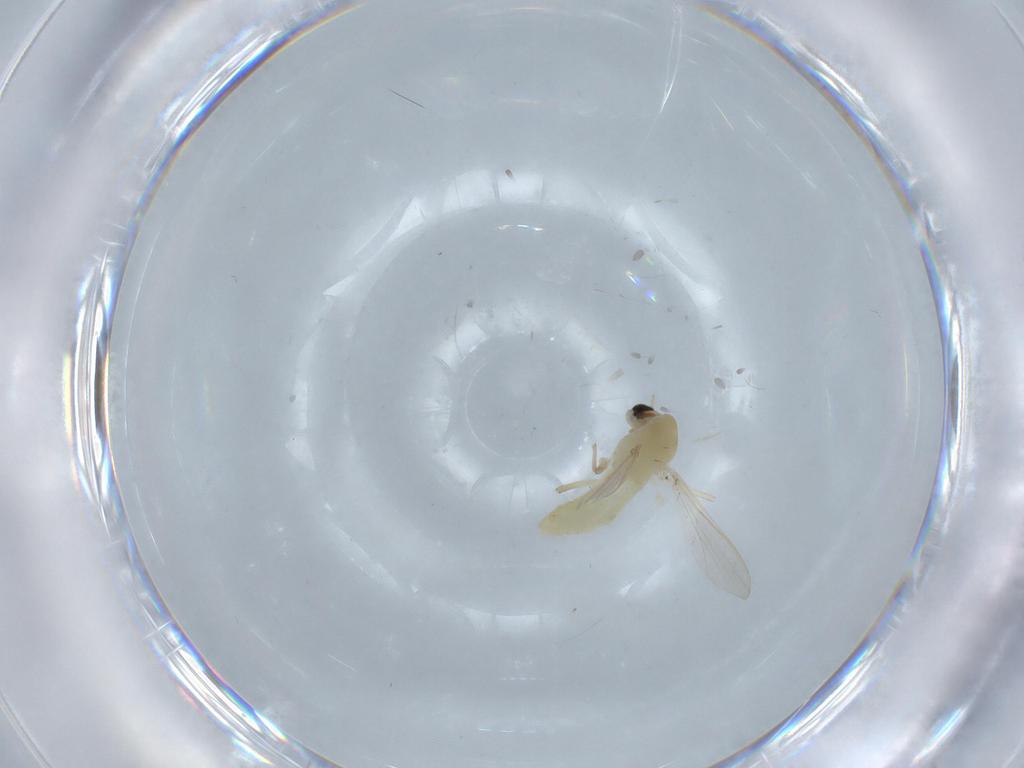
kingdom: Animalia
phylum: Arthropoda
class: Insecta
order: Diptera
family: Chironomidae
